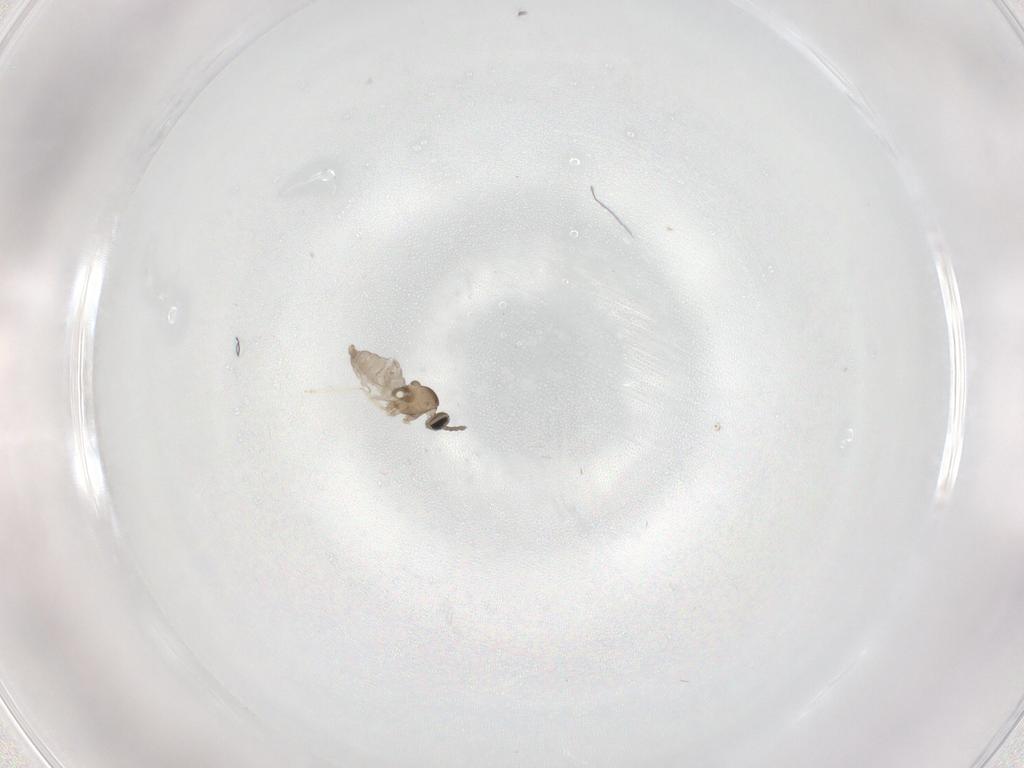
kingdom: Animalia
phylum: Arthropoda
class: Insecta
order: Diptera
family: Cecidomyiidae
